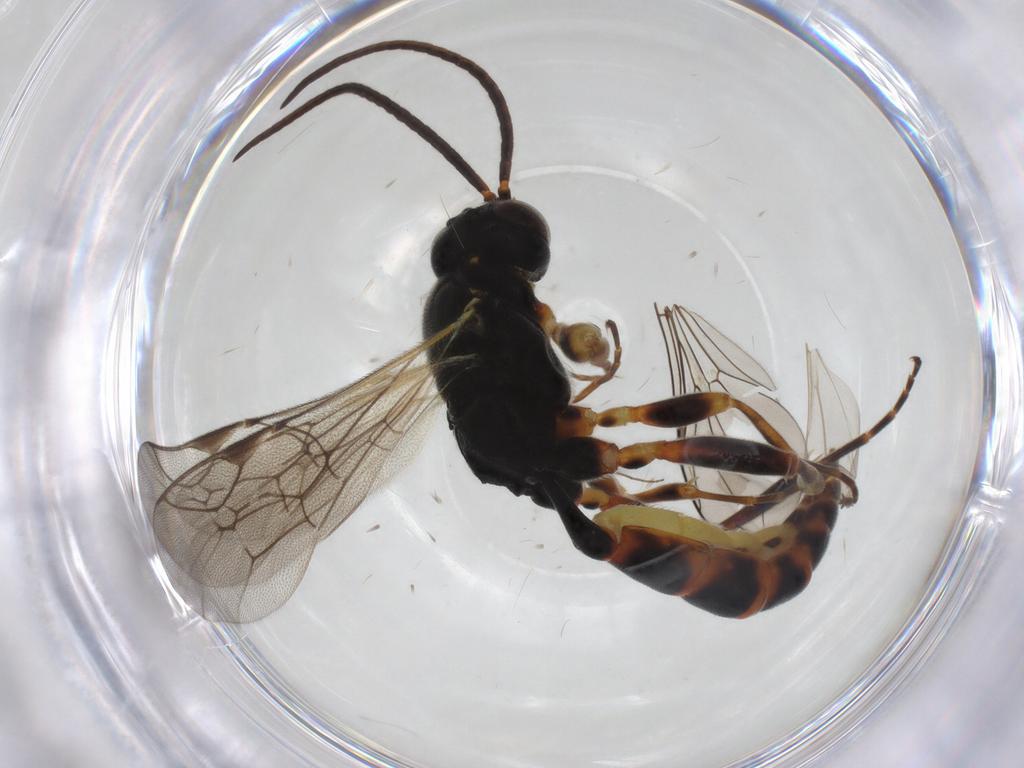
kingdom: Animalia
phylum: Arthropoda
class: Insecta
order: Hymenoptera
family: Ichneumonidae
